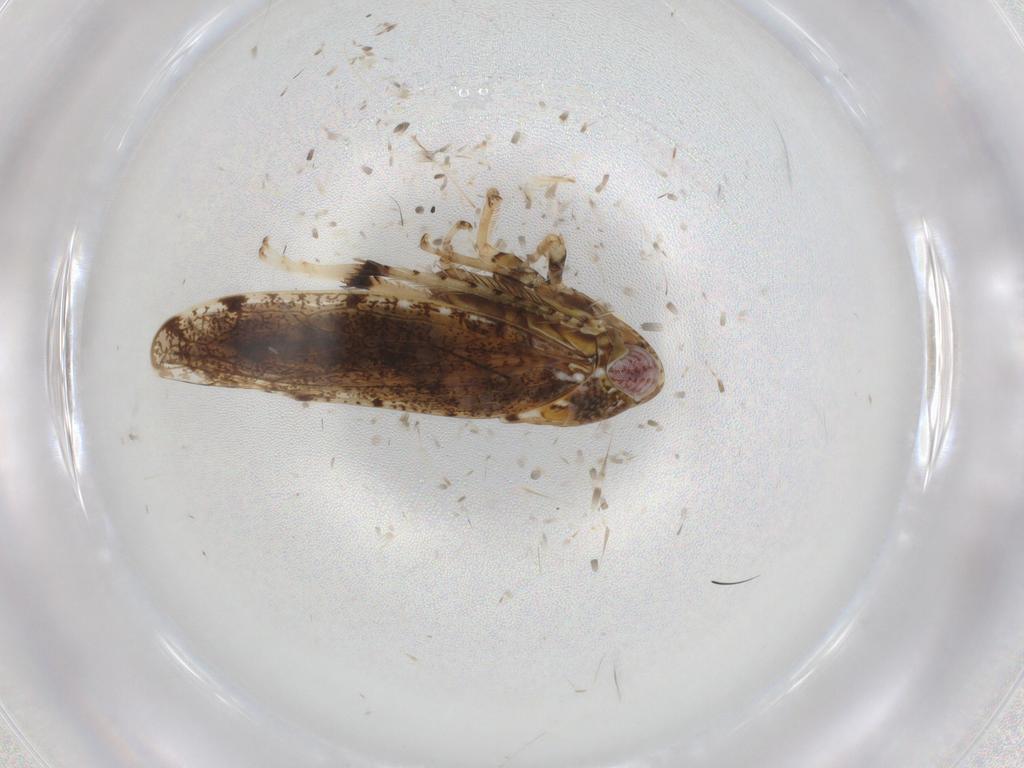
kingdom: Animalia
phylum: Arthropoda
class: Insecta
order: Hemiptera
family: Cicadellidae
